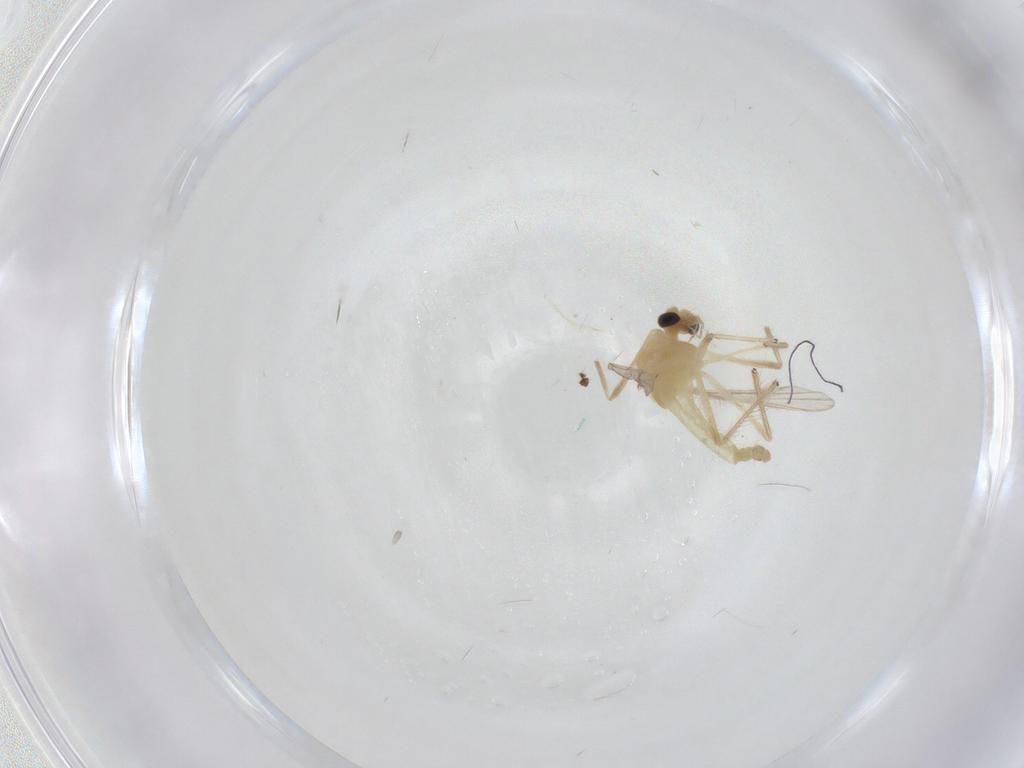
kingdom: Animalia
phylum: Arthropoda
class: Insecta
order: Diptera
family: Chironomidae
